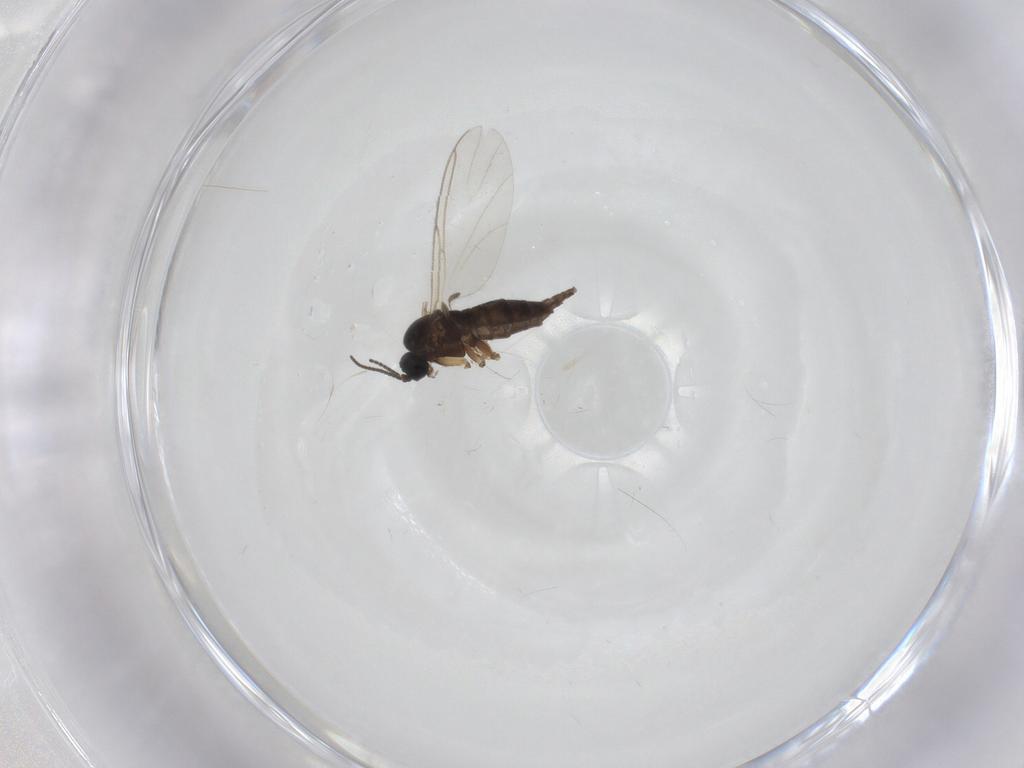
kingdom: Animalia
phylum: Arthropoda
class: Insecta
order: Diptera
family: Sciaridae
